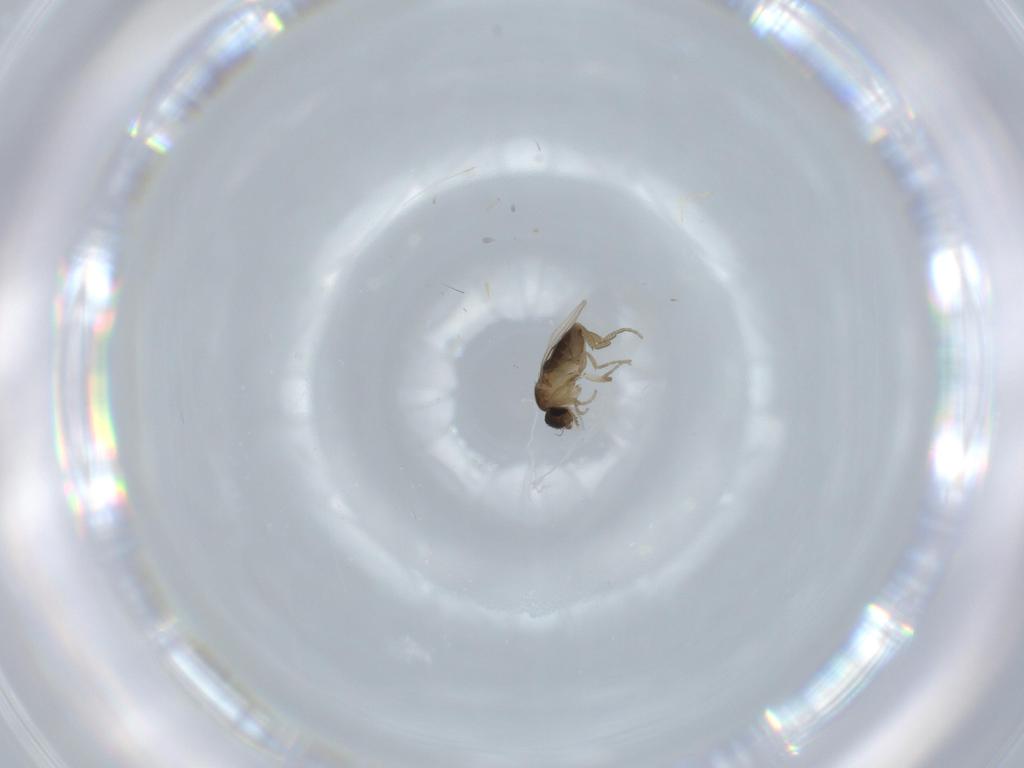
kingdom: Animalia
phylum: Arthropoda
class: Insecta
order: Diptera
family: Phoridae
